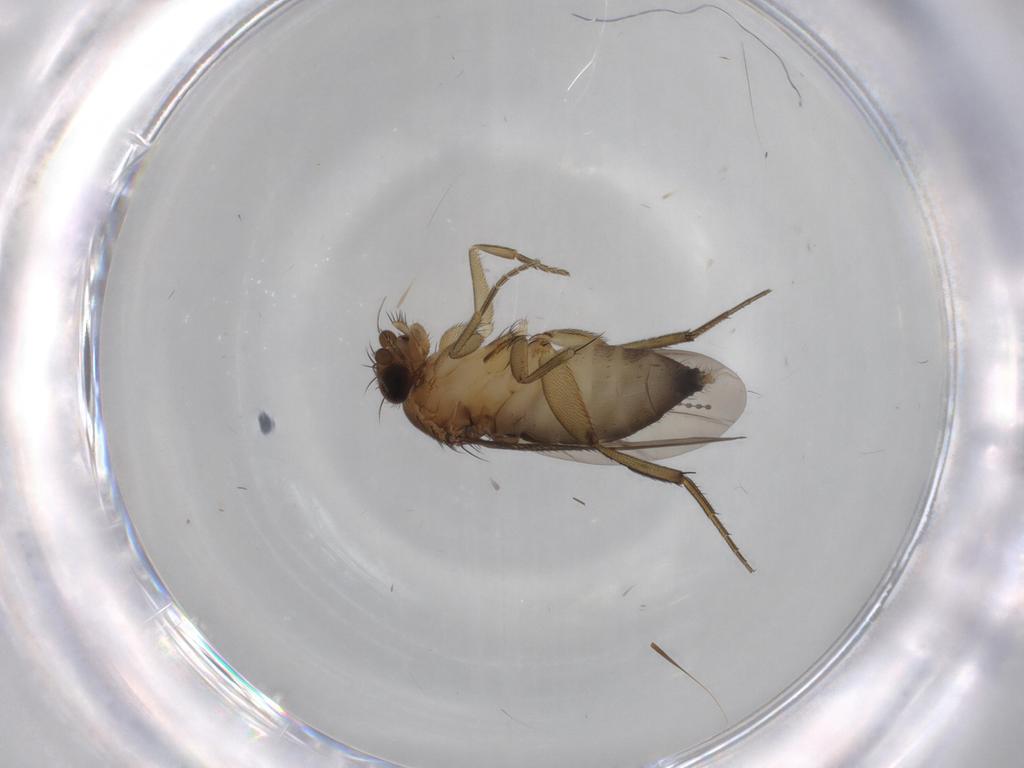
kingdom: Animalia
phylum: Arthropoda
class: Insecta
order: Diptera
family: Phoridae
